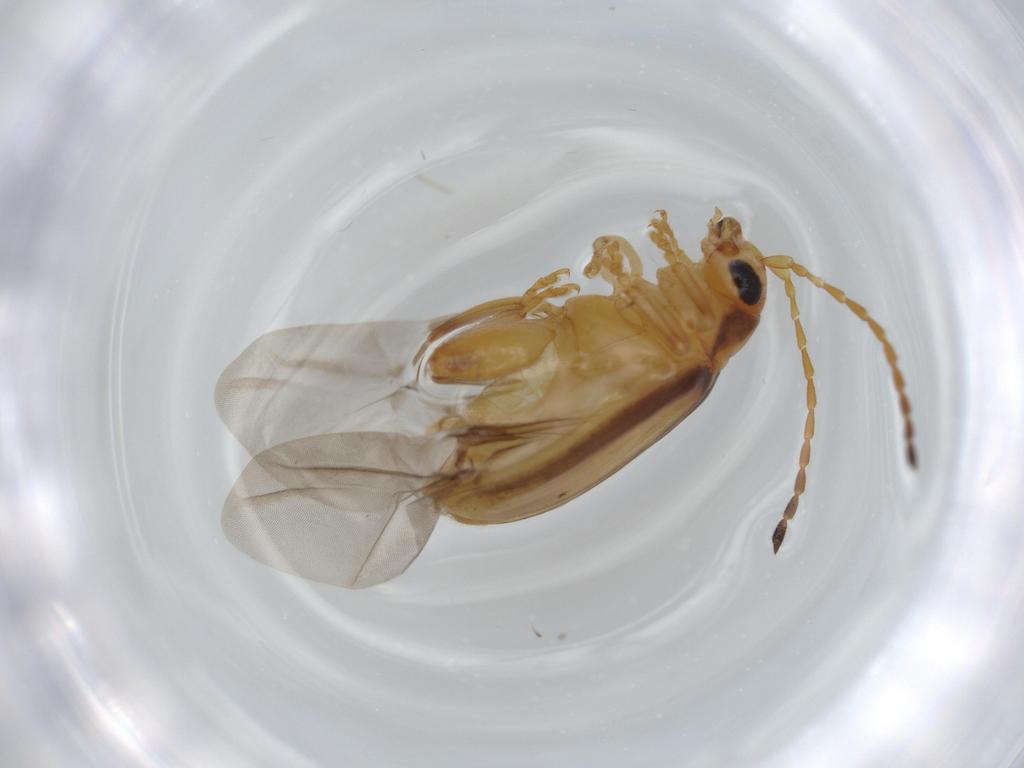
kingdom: Animalia
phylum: Arthropoda
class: Insecta
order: Coleoptera
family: Chrysomelidae
